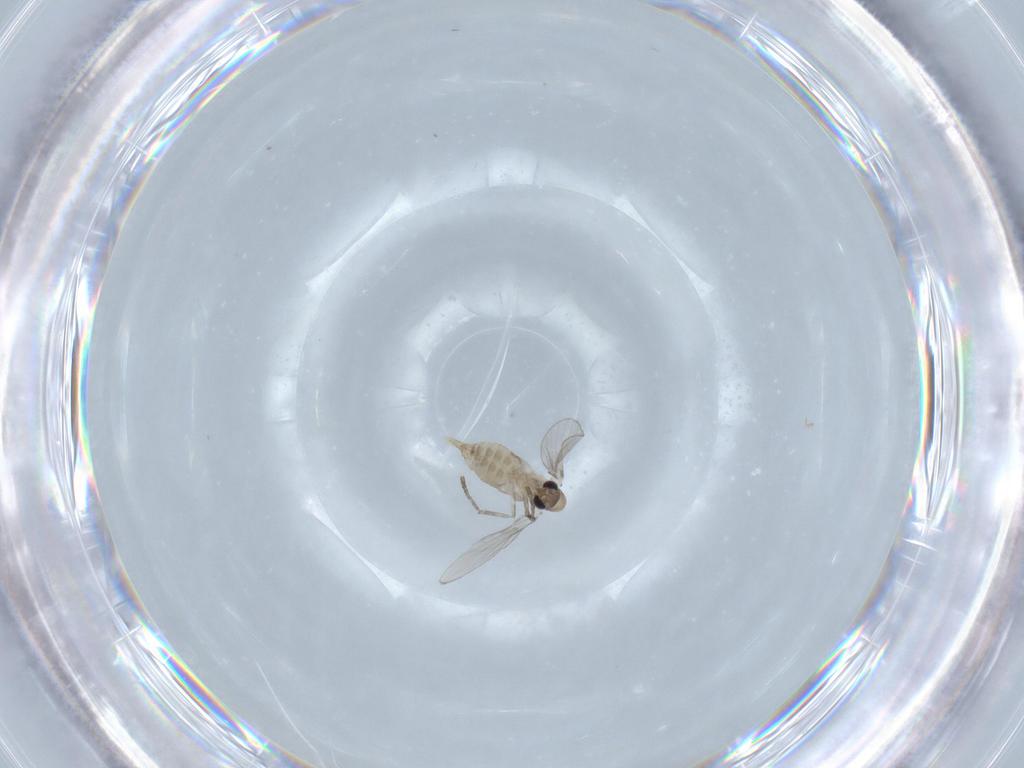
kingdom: Animalia
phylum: Arthropoda
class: Insecta
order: Diptera
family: Psychodidae
